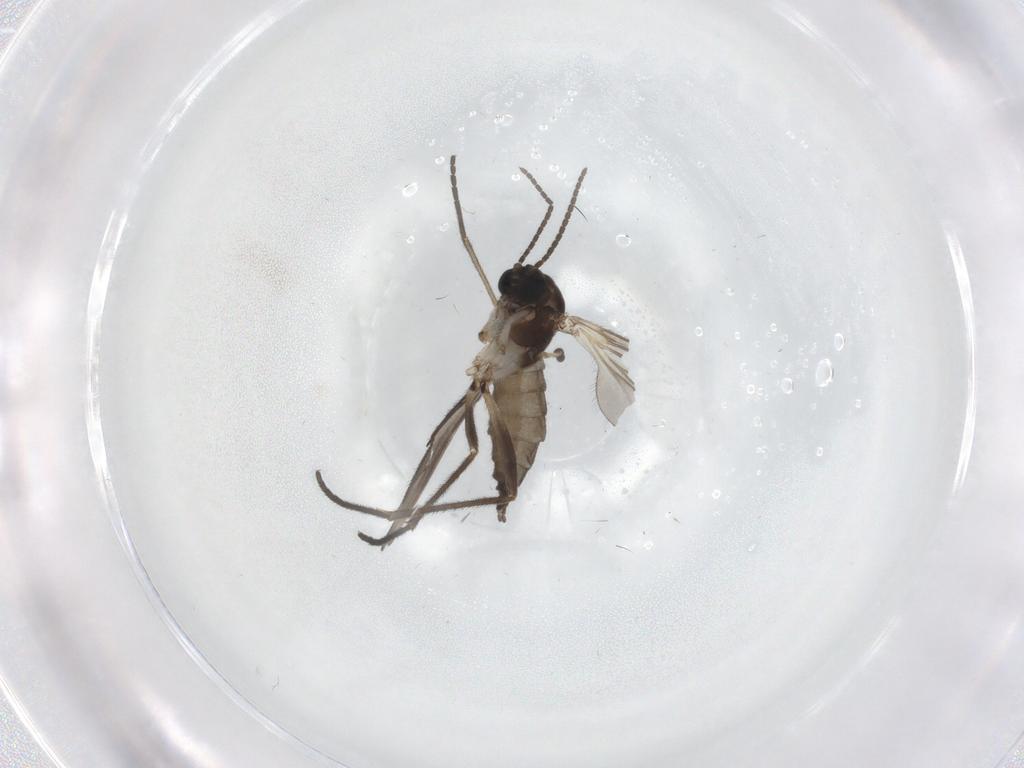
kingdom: Animalia
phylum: Arthropoda
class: Insecta
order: Diptera
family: Sciaridae
